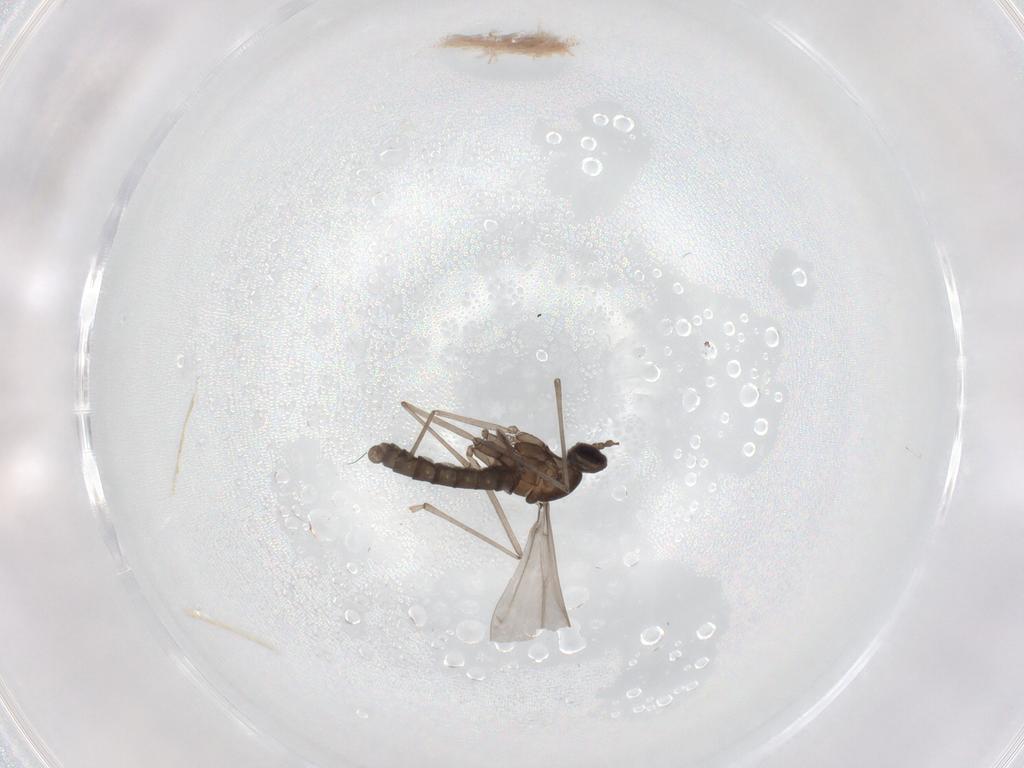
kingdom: Animalia
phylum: Arthropoda
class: Insecta
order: Diptera
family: Cecidomyiidae
